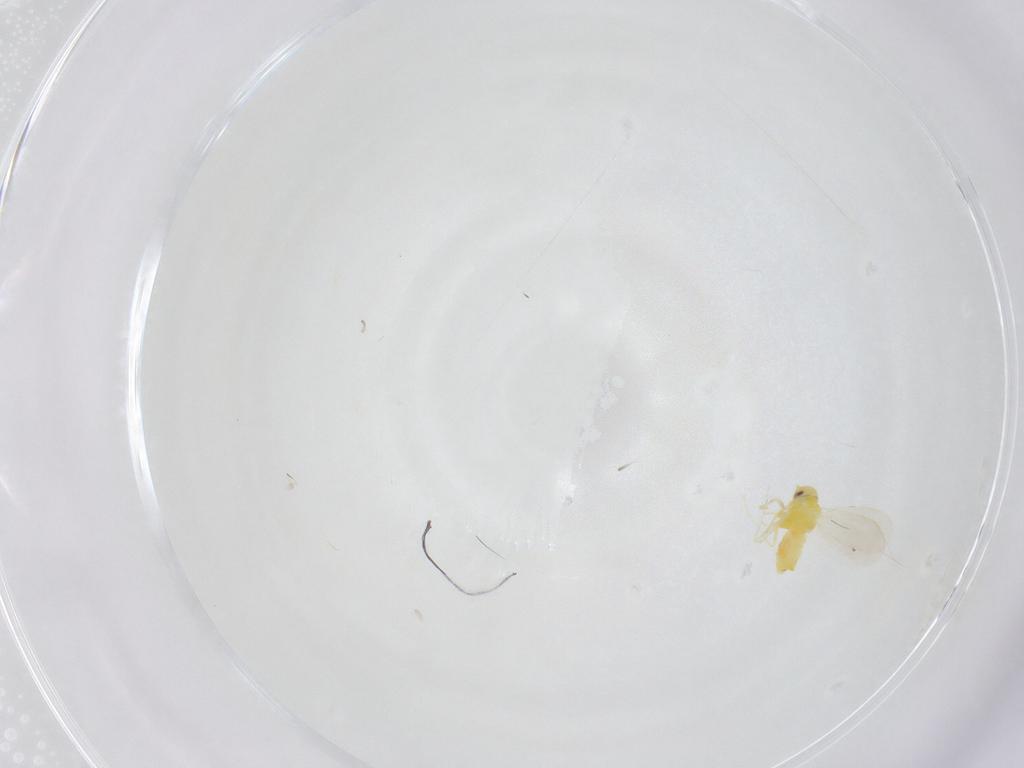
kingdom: Animalia
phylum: Arthropoda
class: Insecta
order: Hemiptera
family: Aleyrodidae
